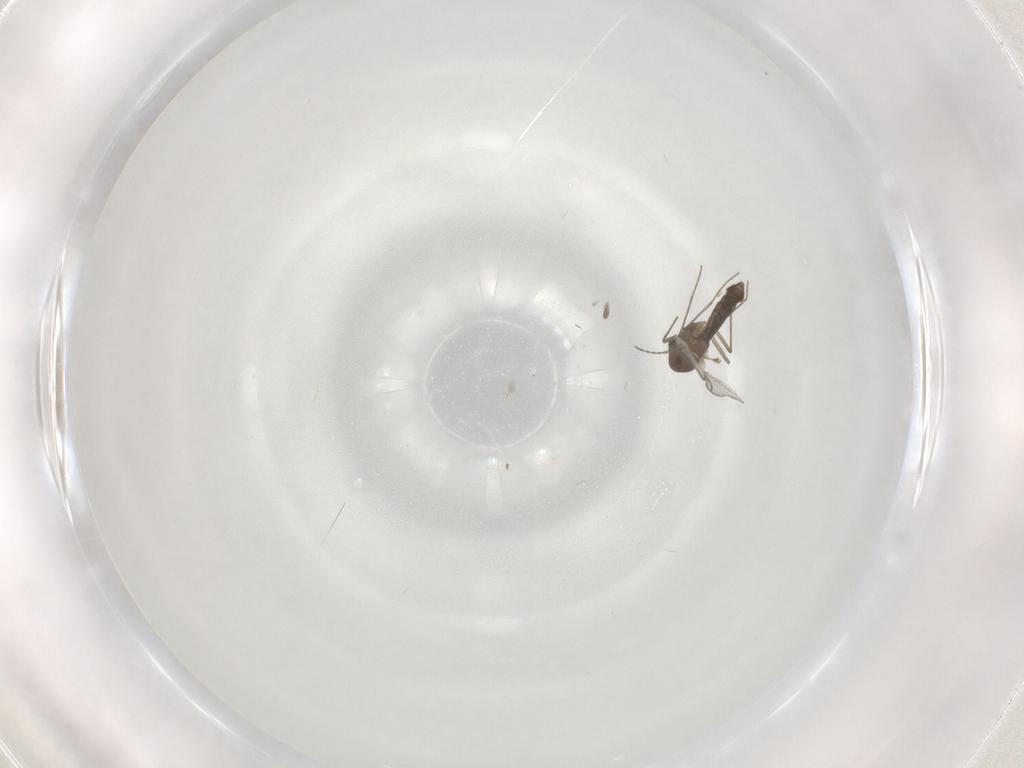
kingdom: Animalia
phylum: Arthropoda
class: Insecta
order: Diptera
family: Chironomidae
